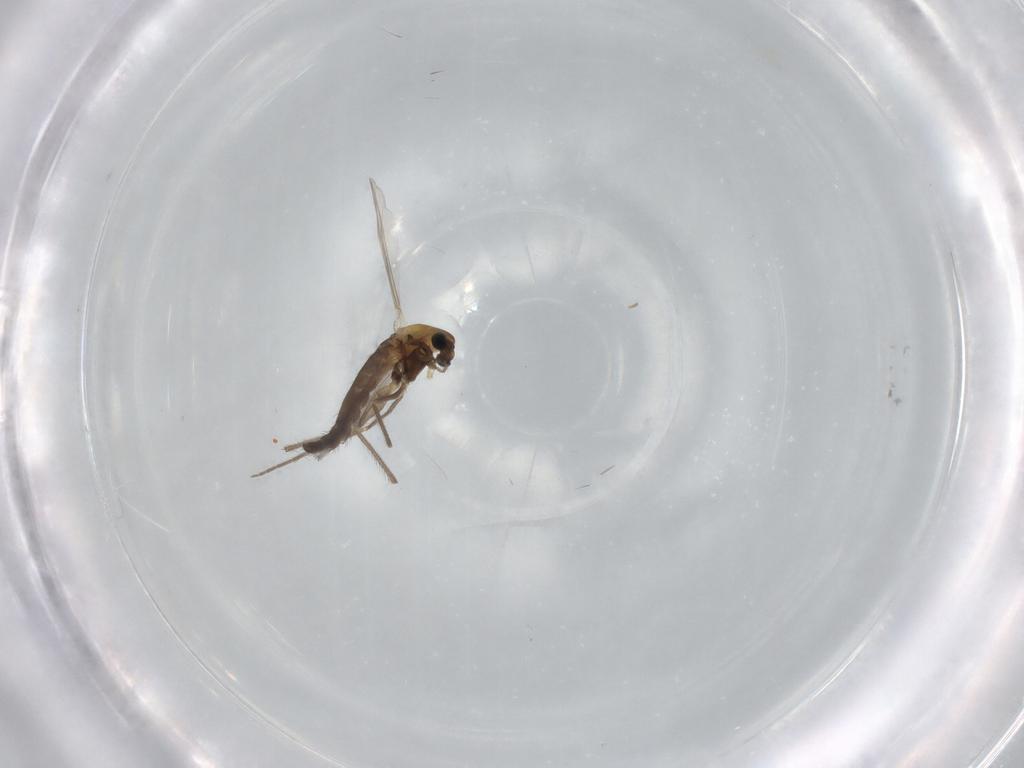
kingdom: Animalia
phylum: Arthropoda
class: Insecta
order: Diptera
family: Chironomidae
